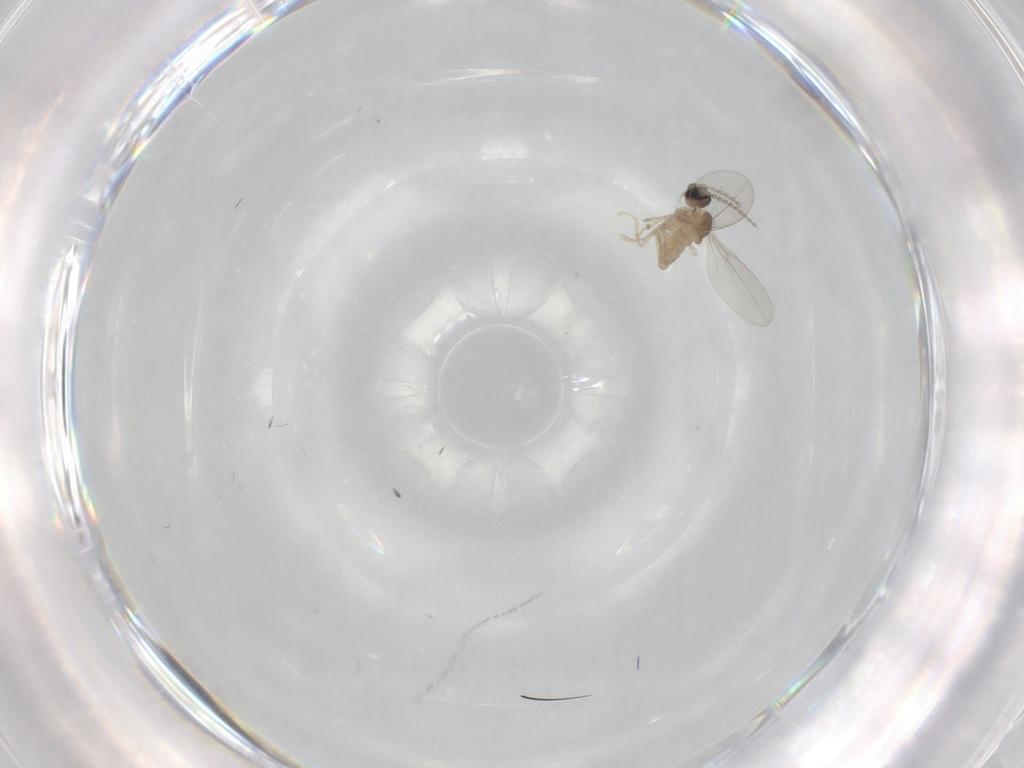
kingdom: Animalia
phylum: Arthropoda
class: Insecta
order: Diptera
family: Cecidomyiidae
